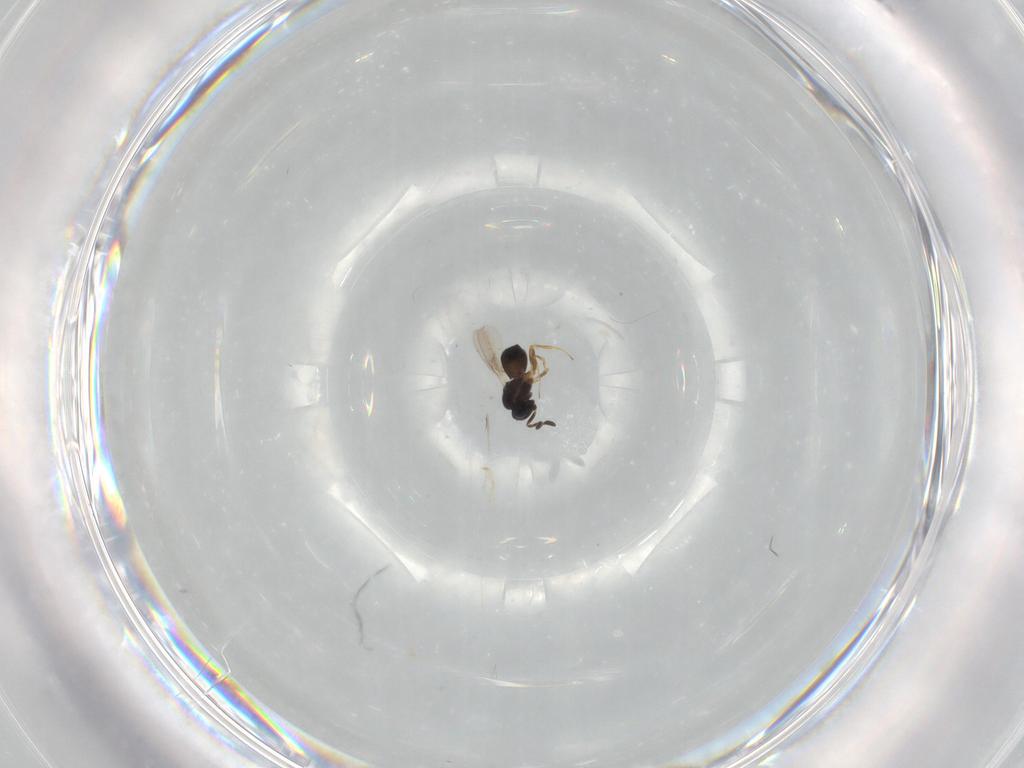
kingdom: Animalia
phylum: Arthropoda
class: Insecta
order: Hymenoptera
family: Scelionidae
